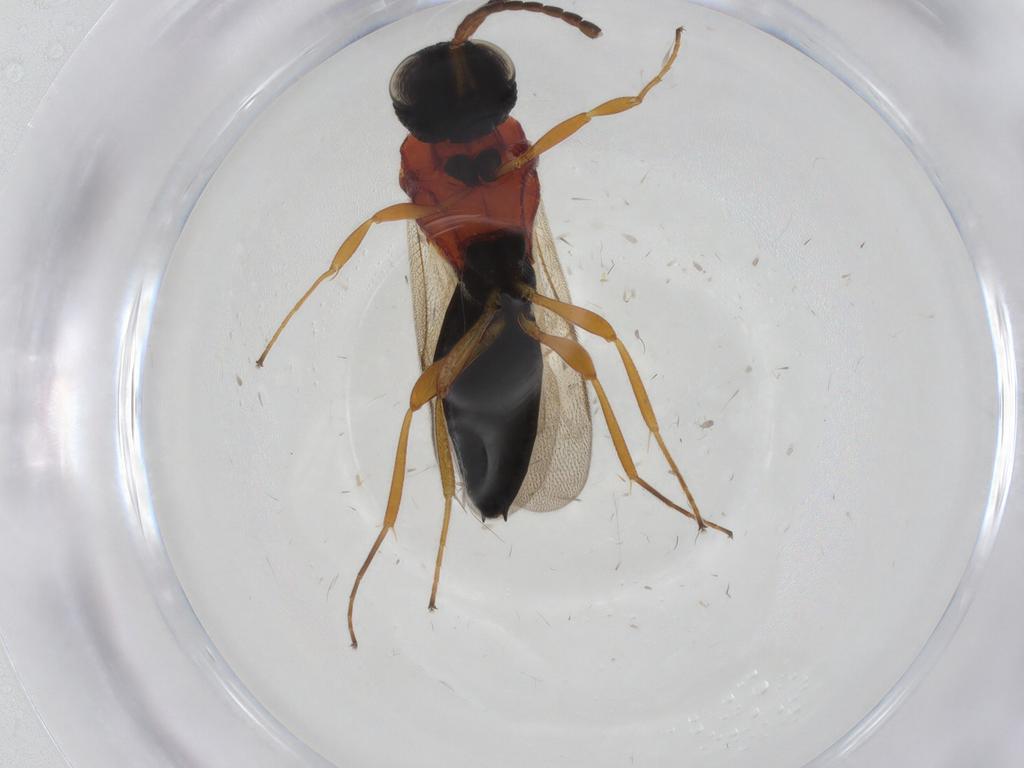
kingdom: Animalia
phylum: Arthropoda
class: Insecta
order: Hymenoptera
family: Scelionidae
